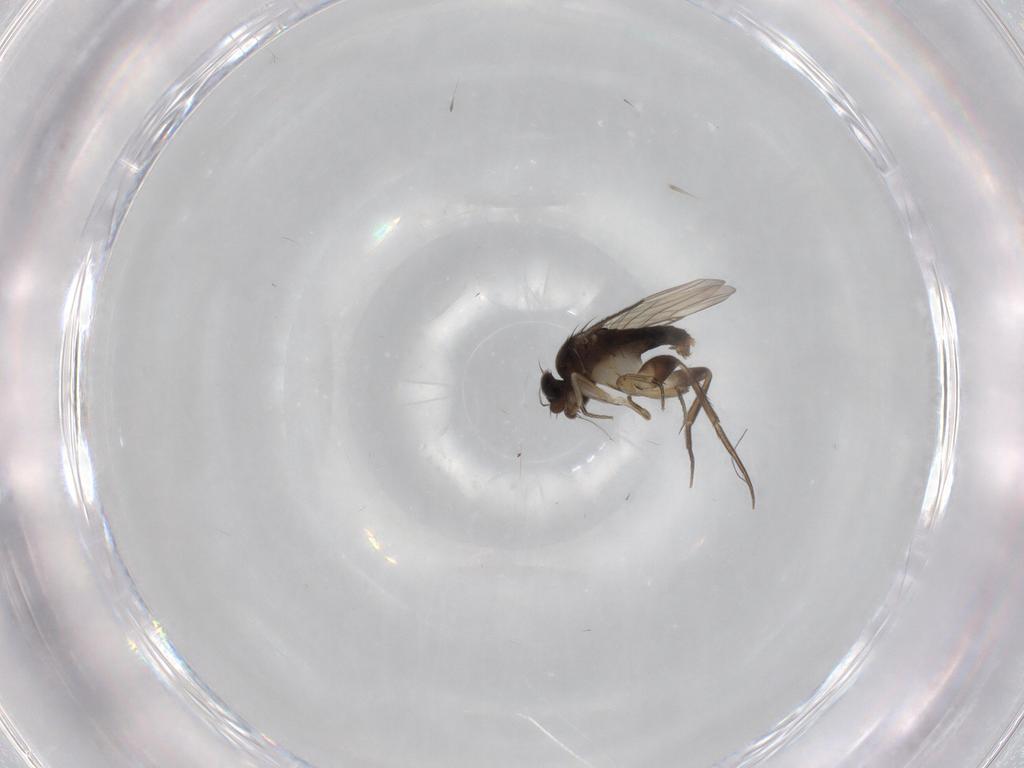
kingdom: Animalia
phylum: Arthropoda
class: Insecta
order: Diptera
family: Phoridae
